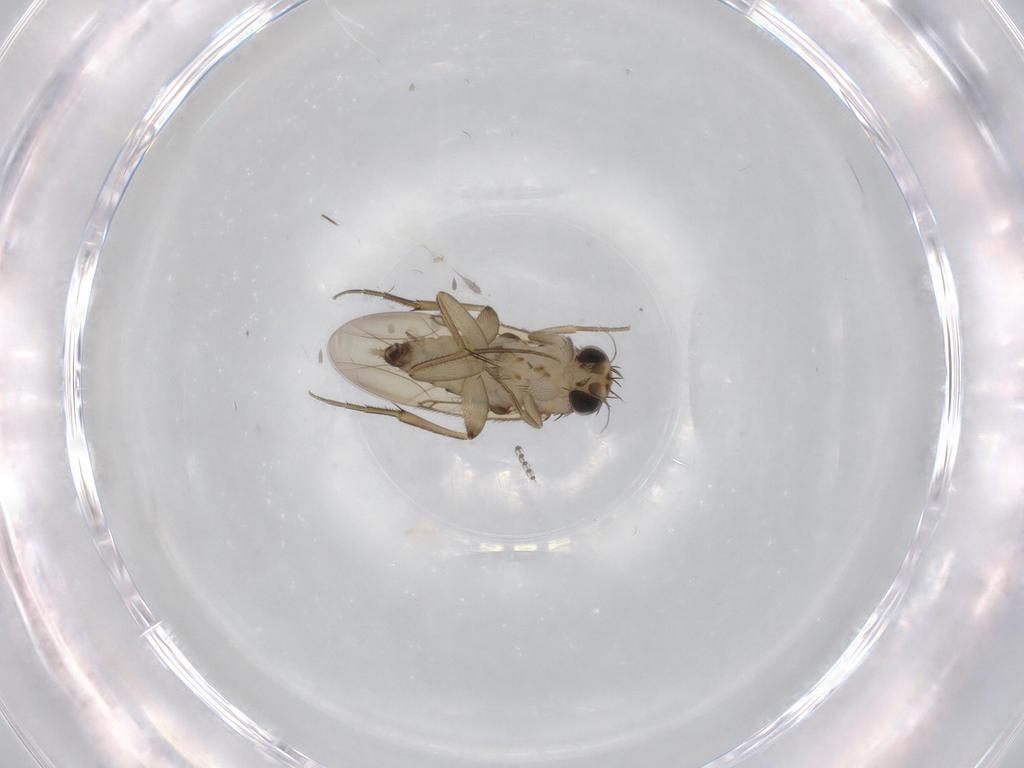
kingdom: Animalia
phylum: Arthropoda
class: Insecta
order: Diptera
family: Phoridae
